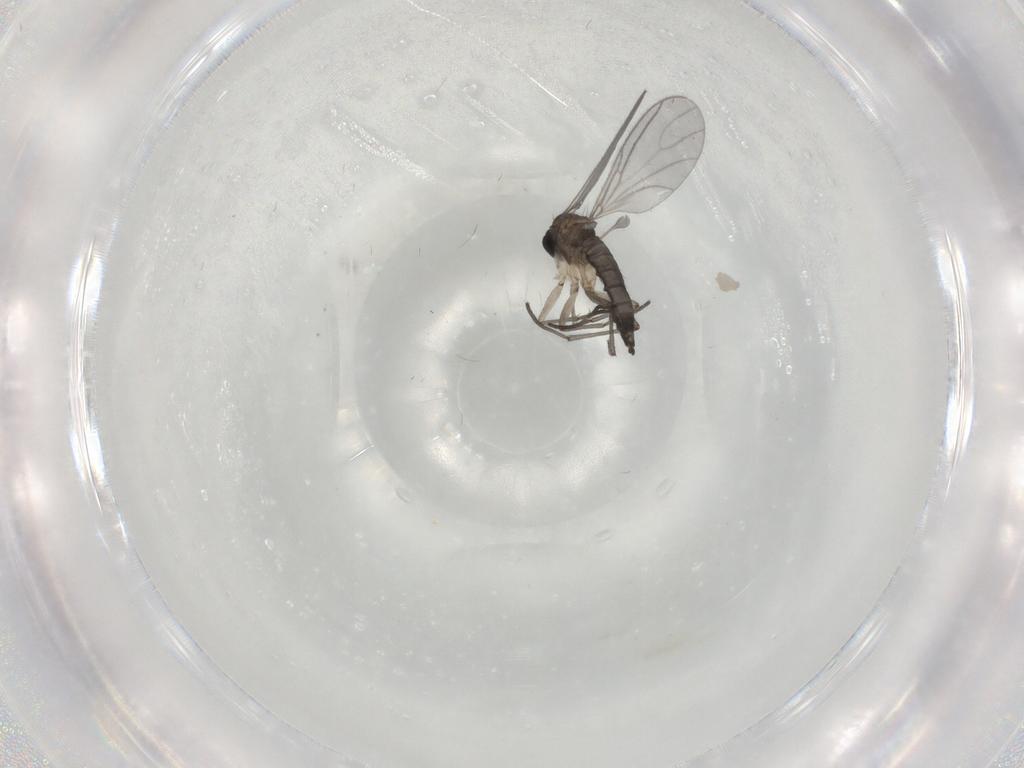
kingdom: Animalia
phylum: Arthropoda
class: Insecta
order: Diptera
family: Sciaridae
